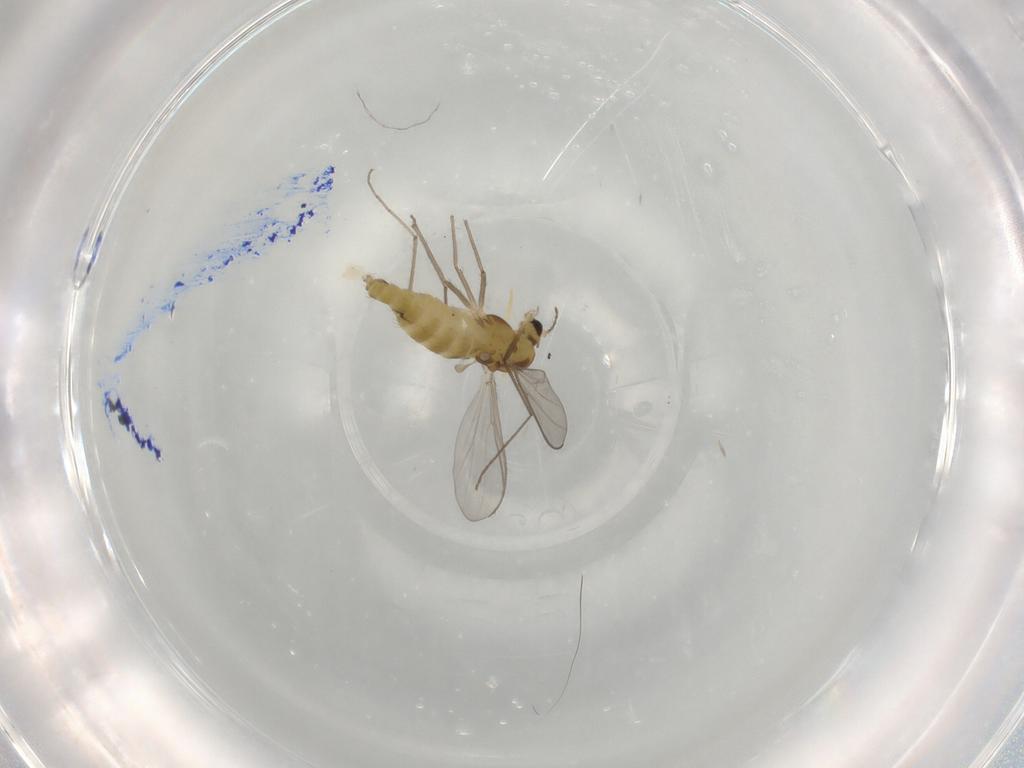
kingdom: Animalia
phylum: Arthropoda
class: Insecta
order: Diptera
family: Chironomidae
